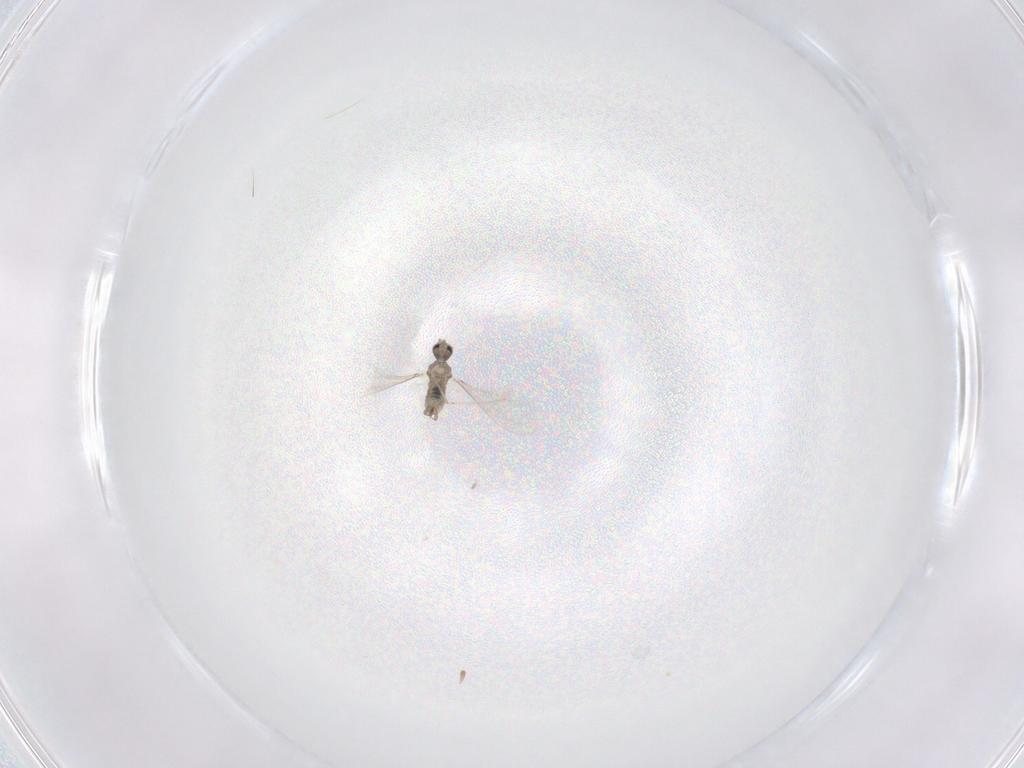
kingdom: Animalia
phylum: Arthropoda
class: Insecta
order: Diptera
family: Cecidomyiidae
